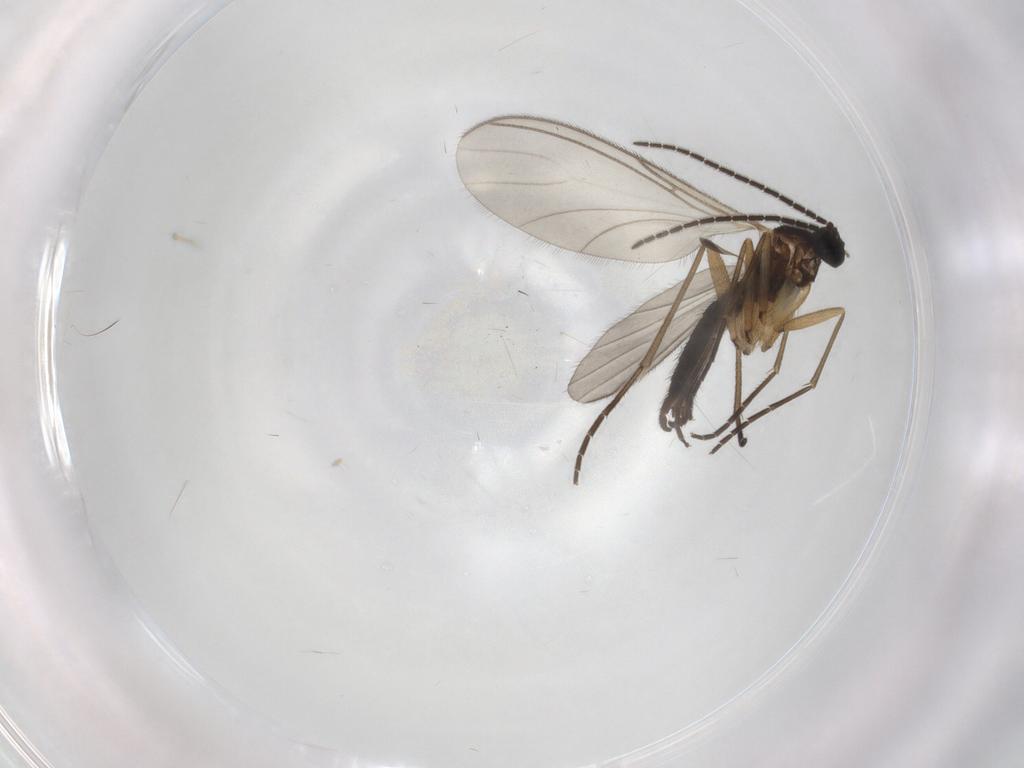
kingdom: Animalia
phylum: Arthropoda
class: Insecta
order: Diptera
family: Sciaridae
